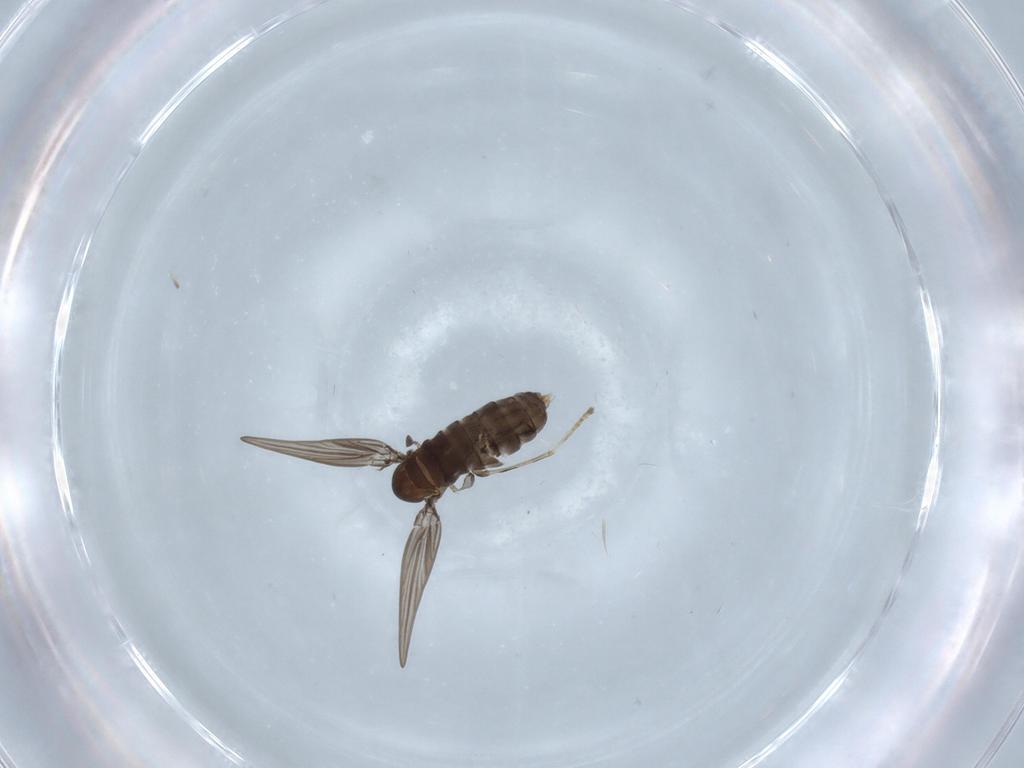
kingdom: Animalia
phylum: Arthropoda
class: Insecta
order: Diptera
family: Psychodidae
